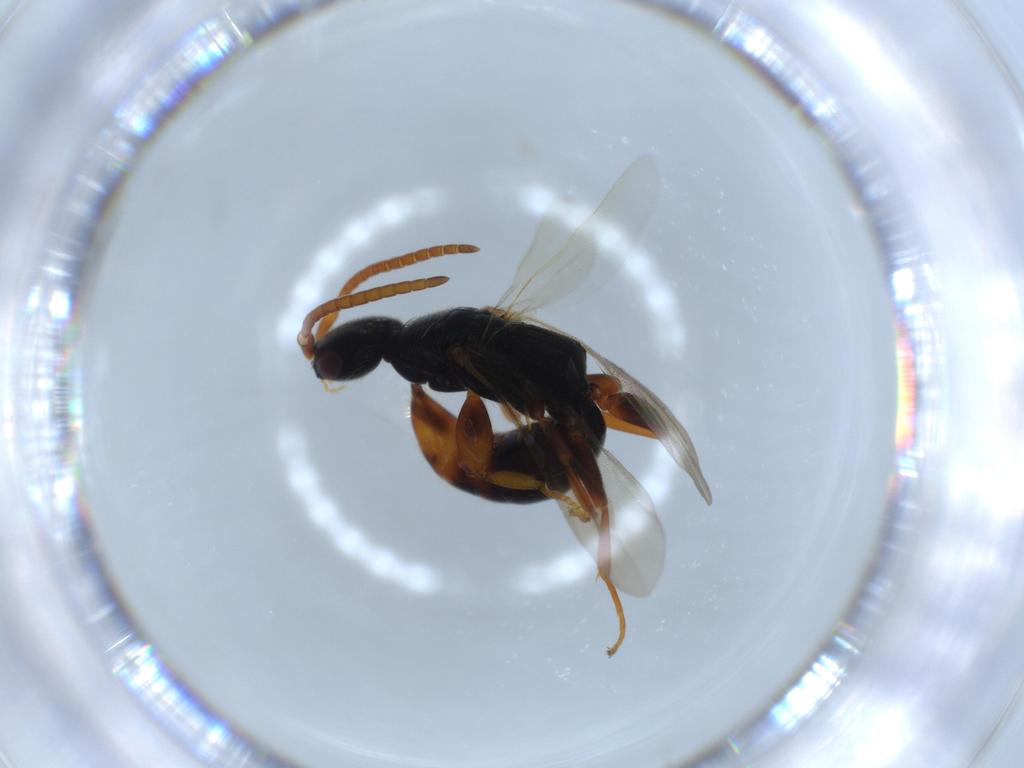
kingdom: Animalia
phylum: Arthropoda
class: Insecta
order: Hymenoptera
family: Bethylidae
